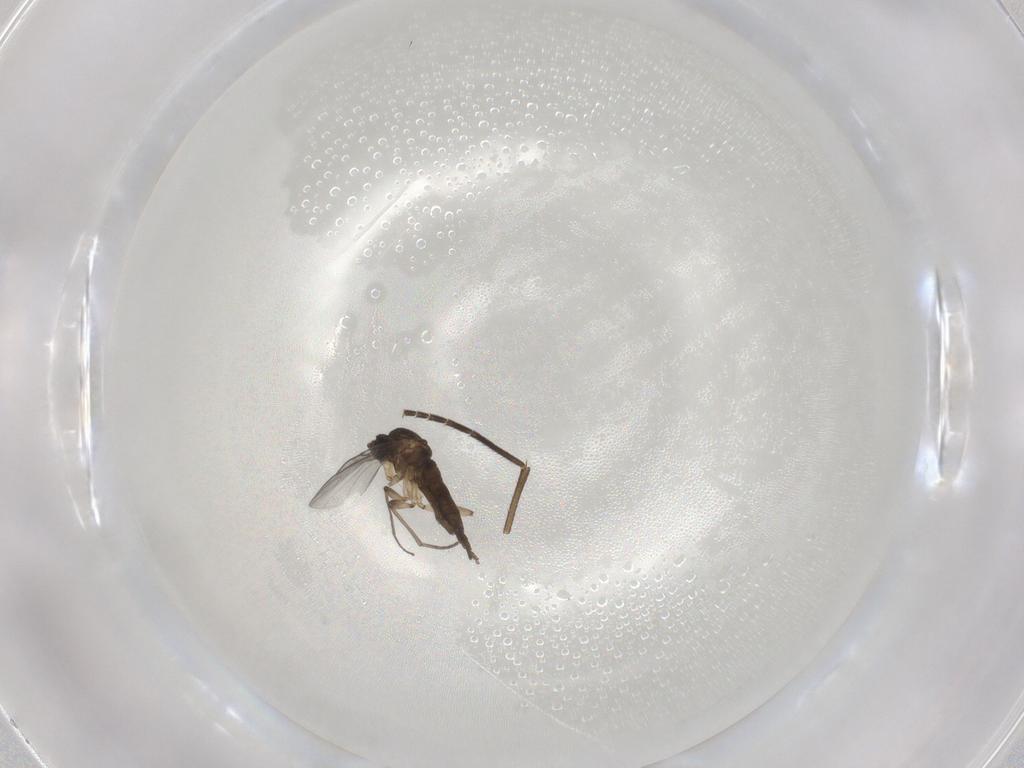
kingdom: Animalia
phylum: Arthropoda
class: Insecta
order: Diptera
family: Sciaridae
